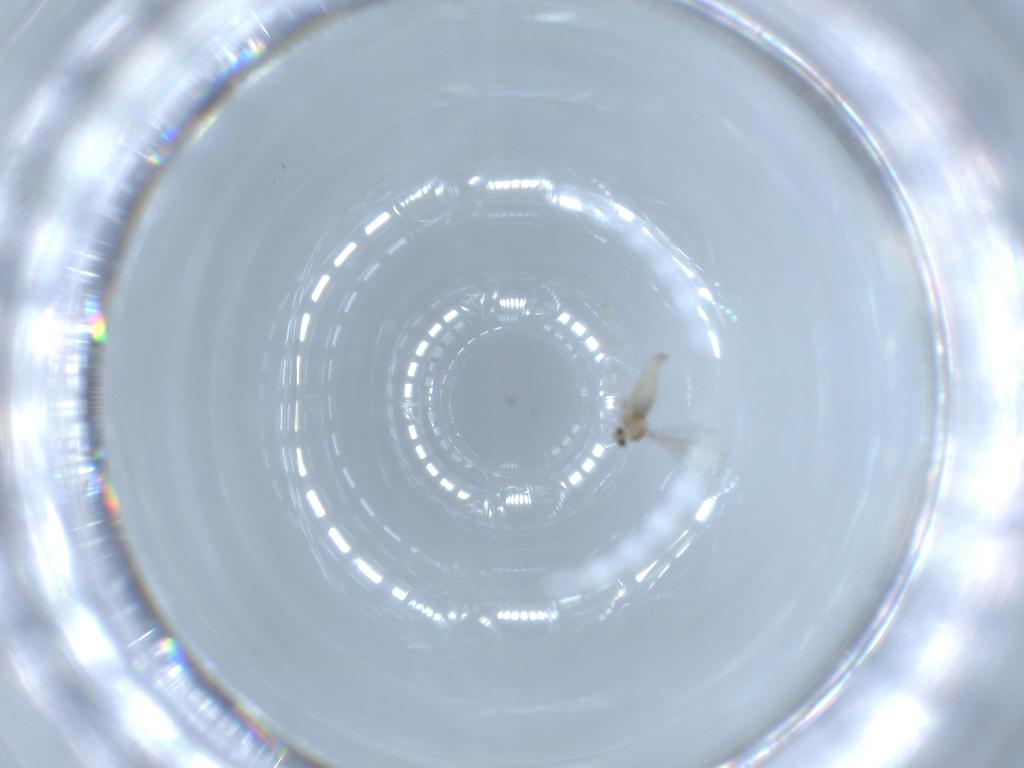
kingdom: Animalia
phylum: Arthropoda
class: Insecta
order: Diptera
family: Cecidomyiidae
